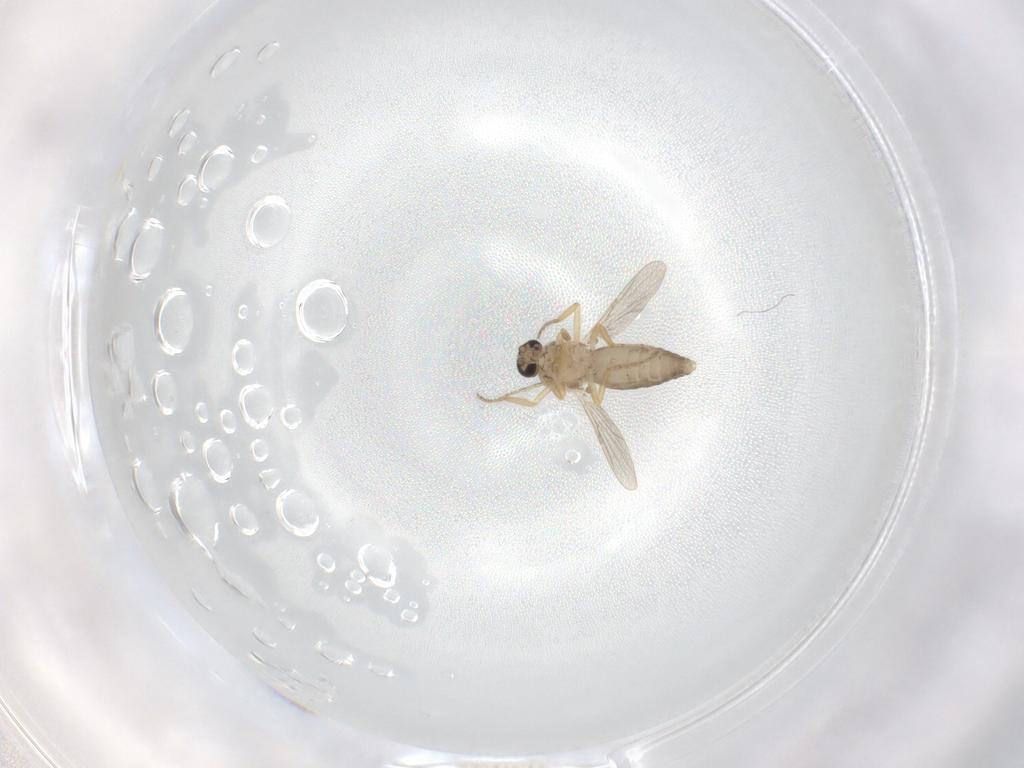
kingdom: Animalia
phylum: Arthropoda
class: Insecta
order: Diptera
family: Ceratopogonidae
